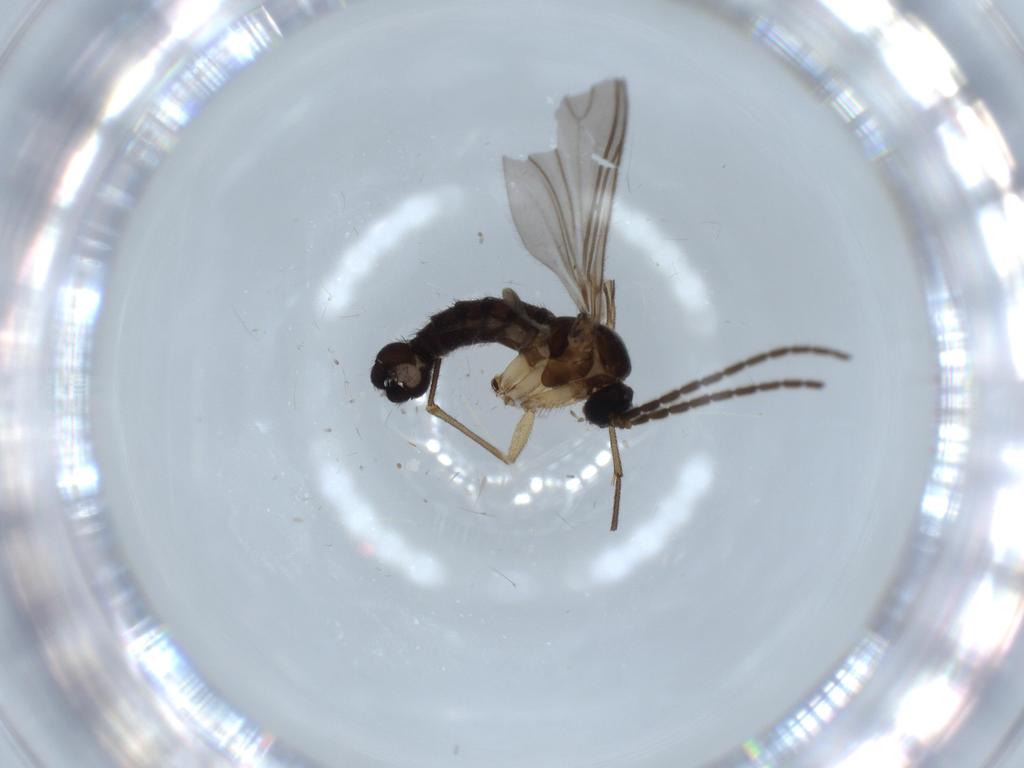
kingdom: Animalia
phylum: Arthropoda
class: Insecta
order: Diptera
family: Sciaridae
